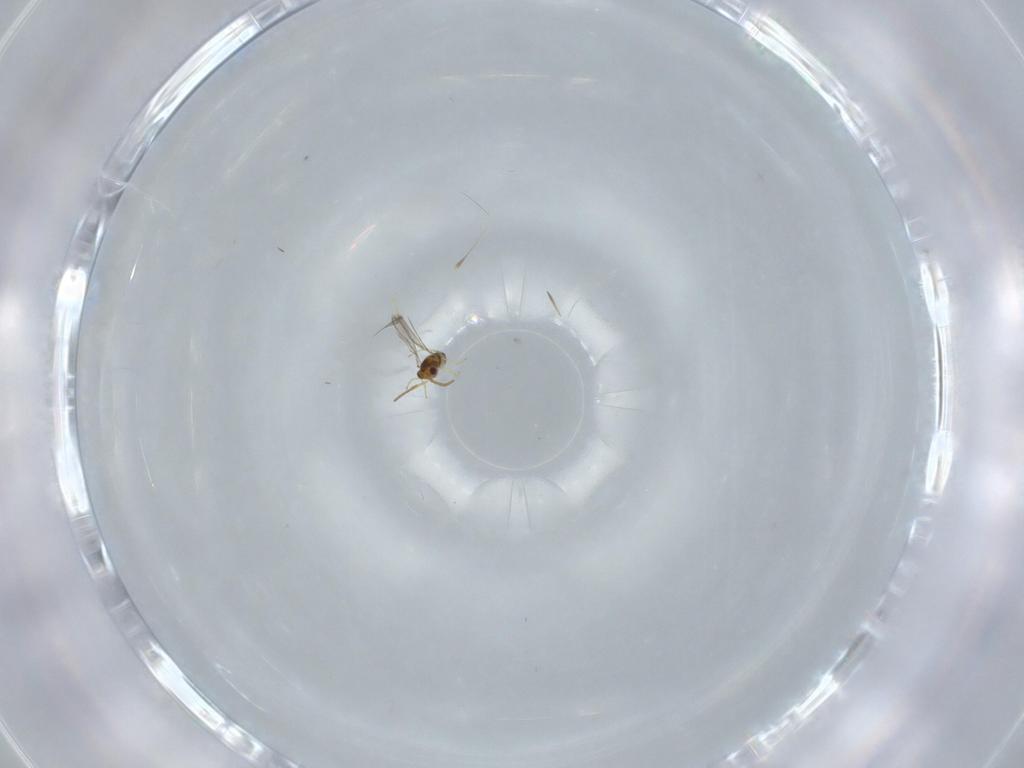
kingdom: Animalia
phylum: Arthropoda
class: Insecta
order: Hymenoptera
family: Aphelinidae
